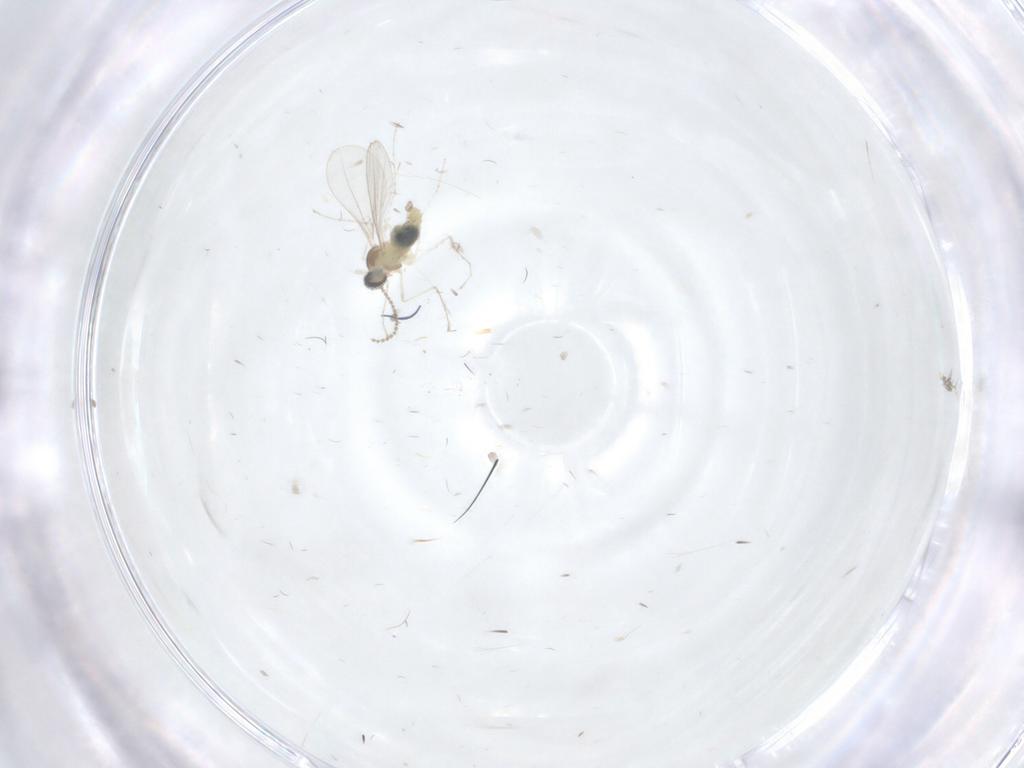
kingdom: Animalia
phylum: Arthropoda
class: Insecta
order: Diptera
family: Cecidomyiidae
